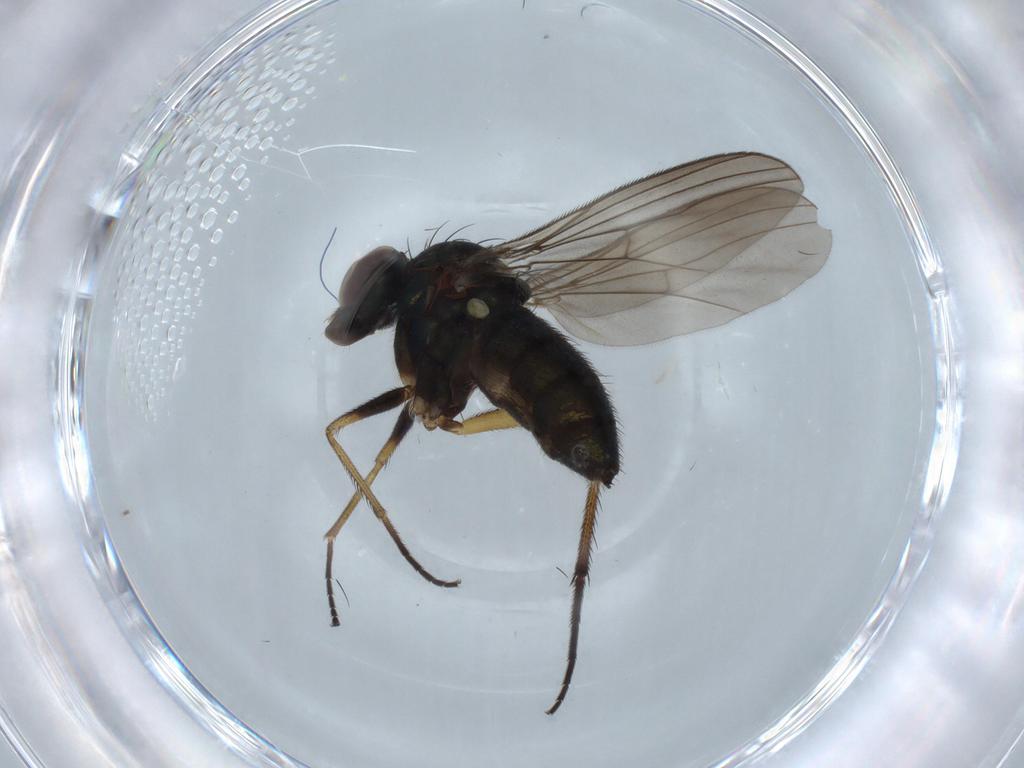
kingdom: Animalia
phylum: Arthropoda
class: Insecta
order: Diptera
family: Dolichopodidae
